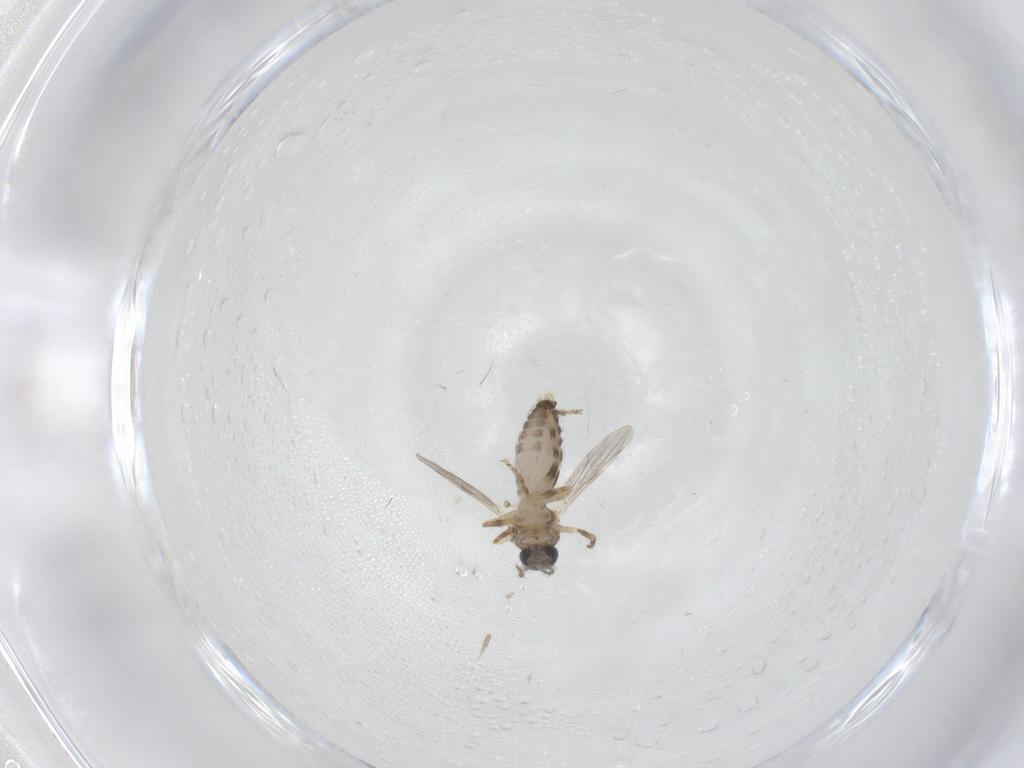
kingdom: Animalia
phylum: Arthropoda
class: Insecta
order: Diptera
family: Ceratopogonidae
